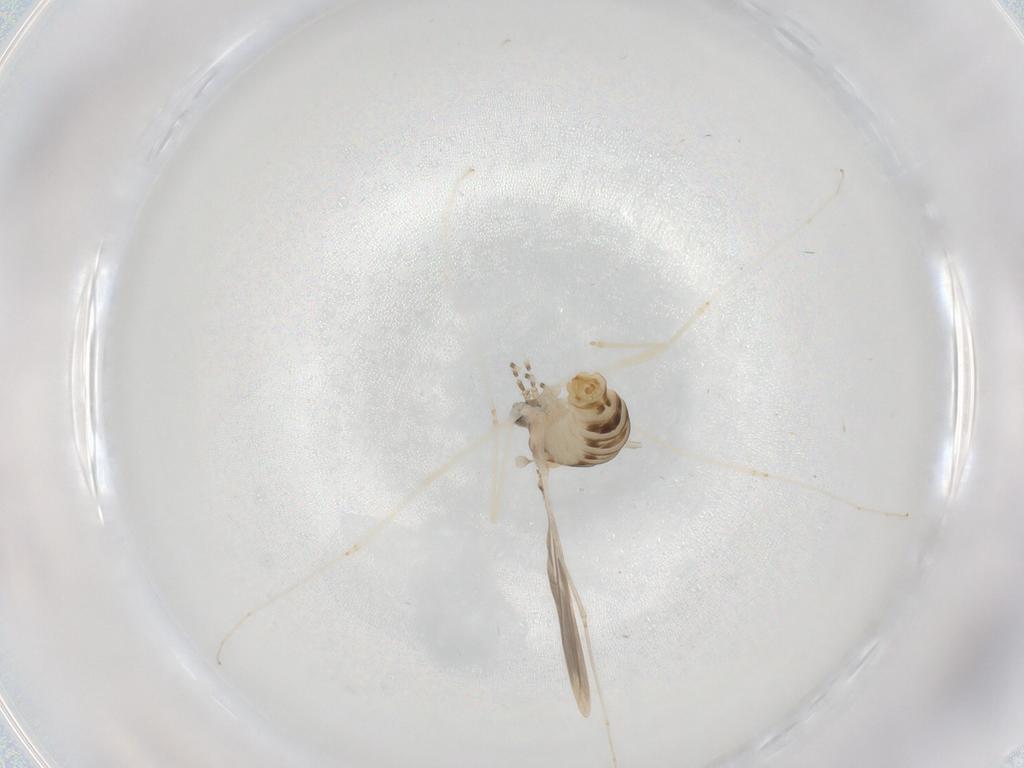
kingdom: Animalia
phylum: Arthropoda
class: Insecta
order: Diptera
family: Cecidomyiidae
